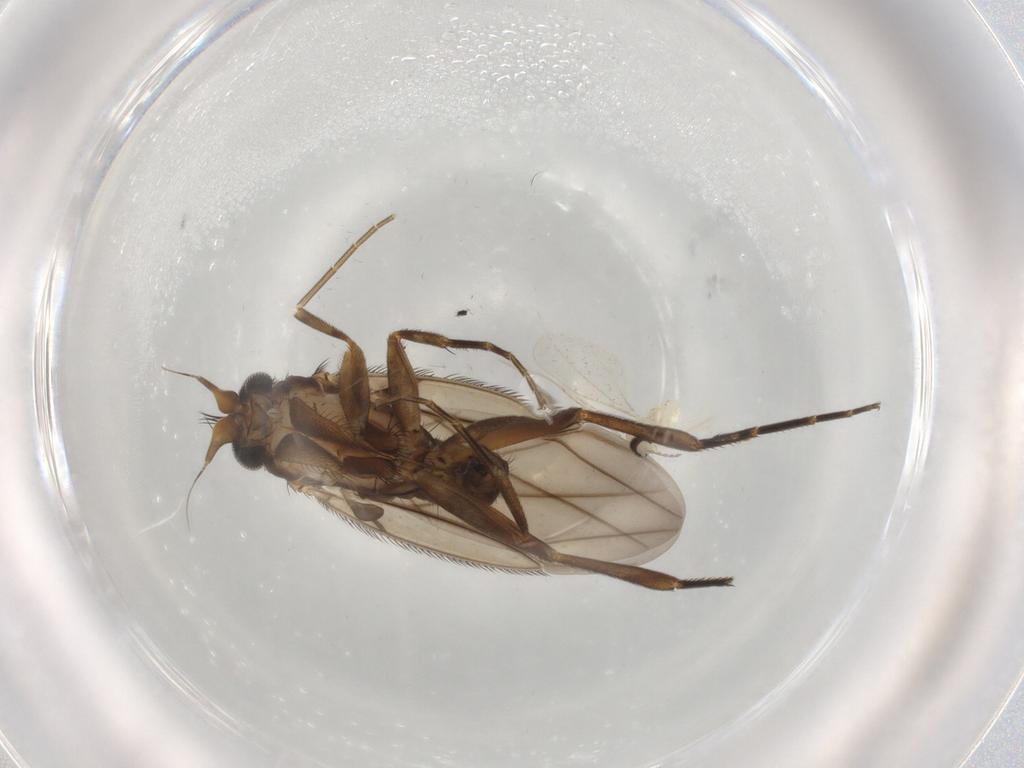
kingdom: Animalia
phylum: Arthropoda
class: Insecta
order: Diptera
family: Phoridae
